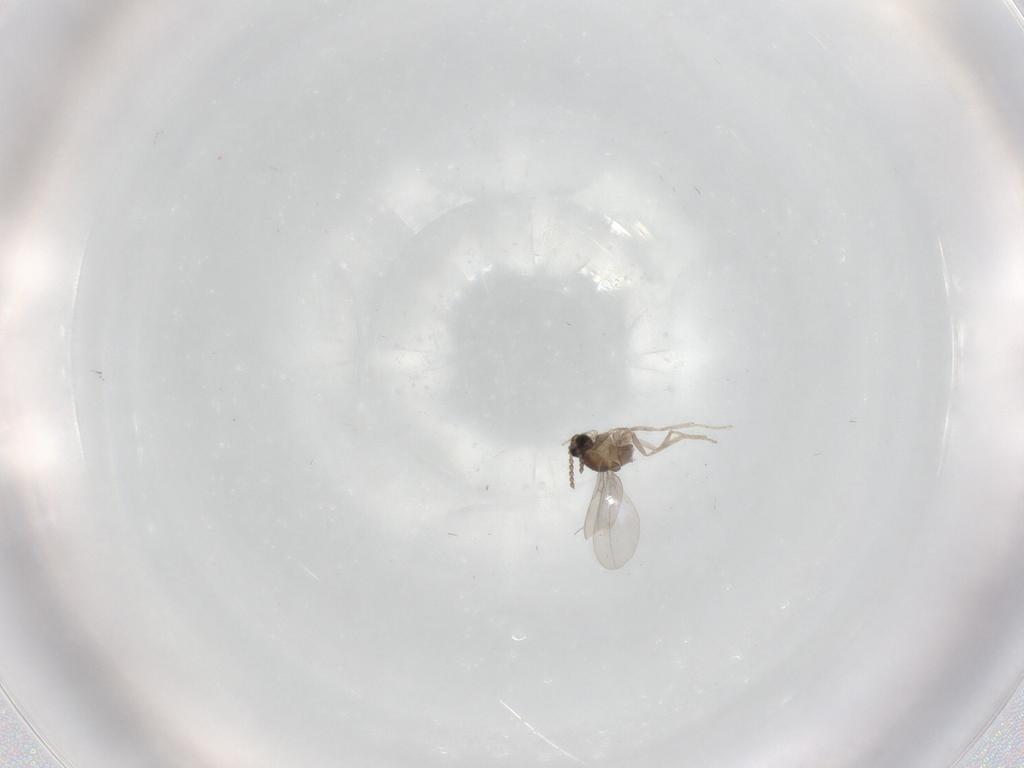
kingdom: Animalia
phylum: Arthropoda
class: Insecta
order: Diptera
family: Cecidomyiidae
